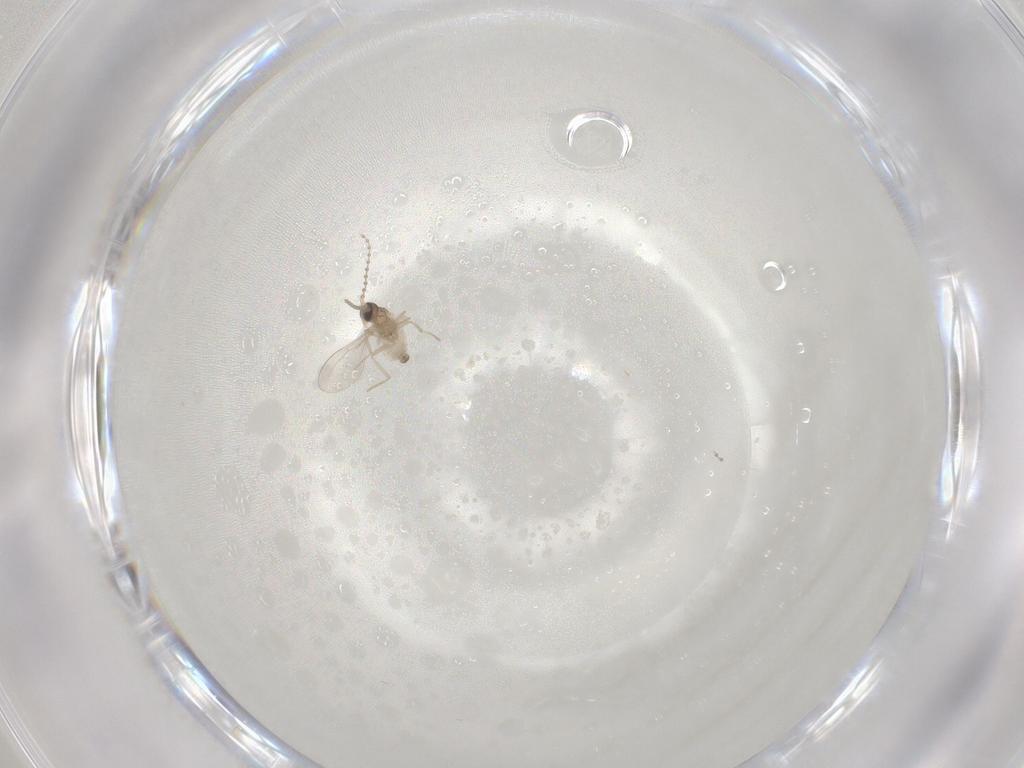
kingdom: Animalia
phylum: Arthropoda
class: Insecta
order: Diptera
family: Cecidomyiidae
